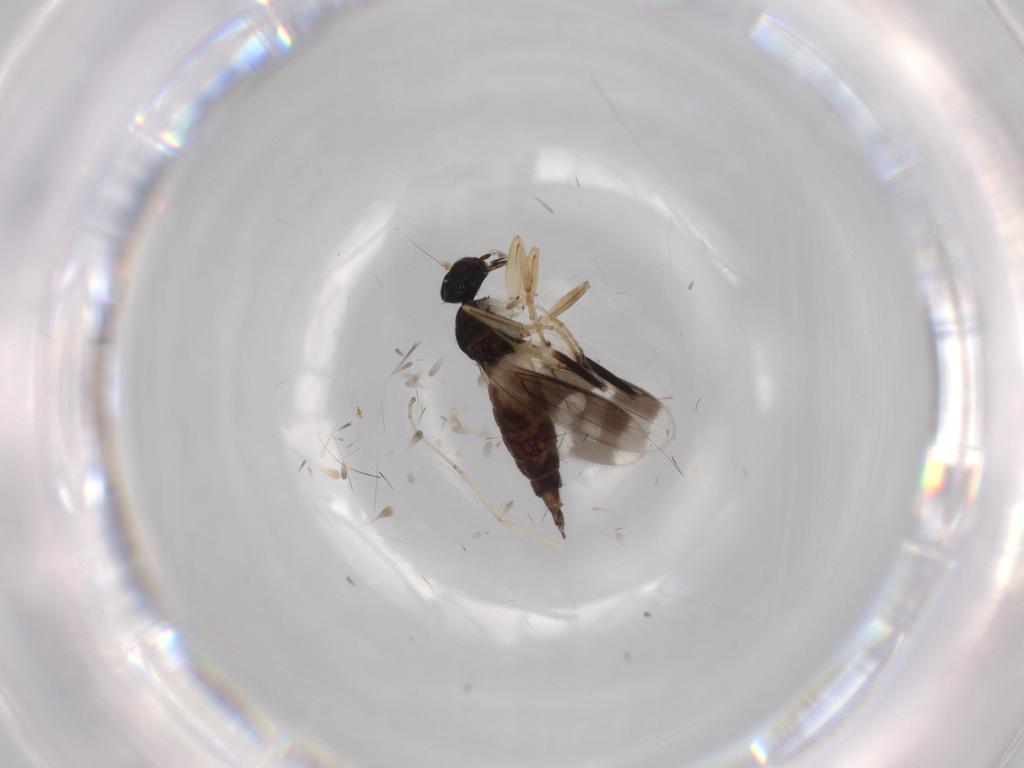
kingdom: Animalia
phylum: Arthropoda
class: Insecta
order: Diptera
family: Hybotidae
